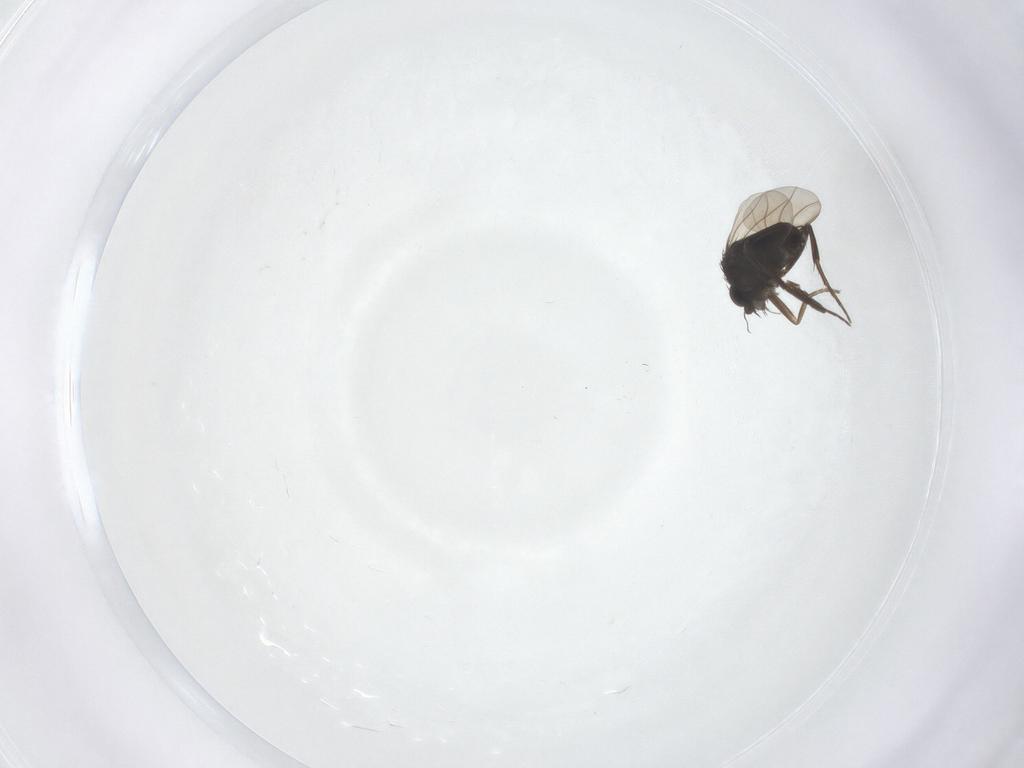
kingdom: Animalia
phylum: Arthropoda
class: Insecta
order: Diptera
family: Phoridae
